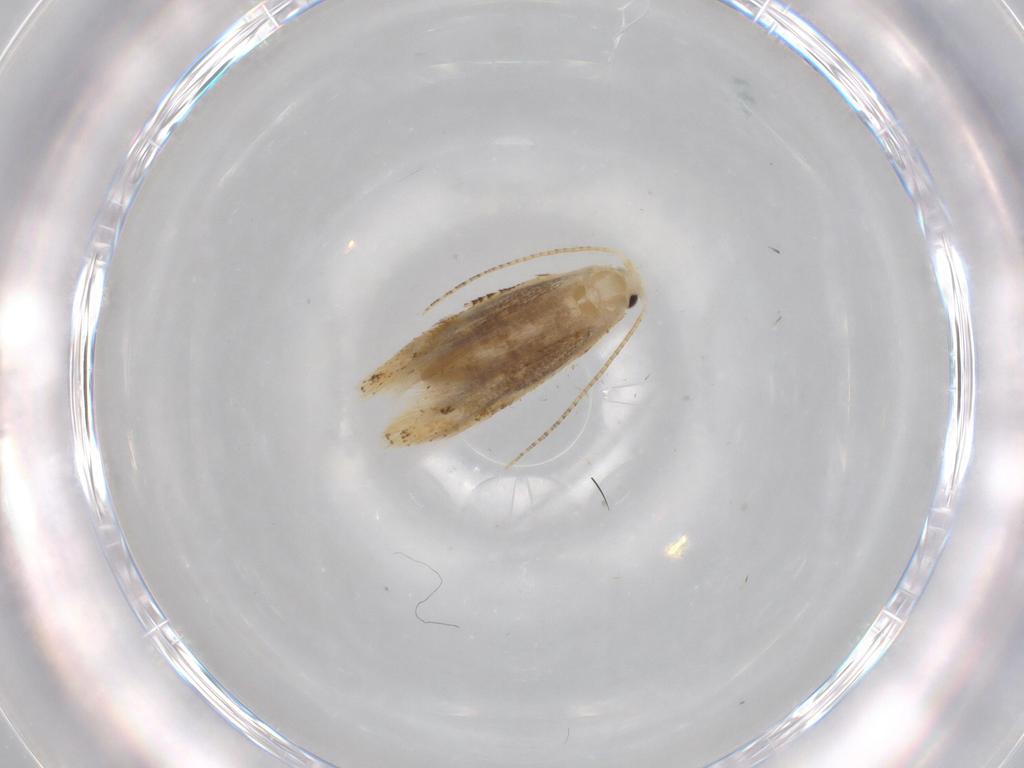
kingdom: Animalia
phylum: Arthropoda
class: Insecta
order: Lepidoptera
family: Bucculatricidae
